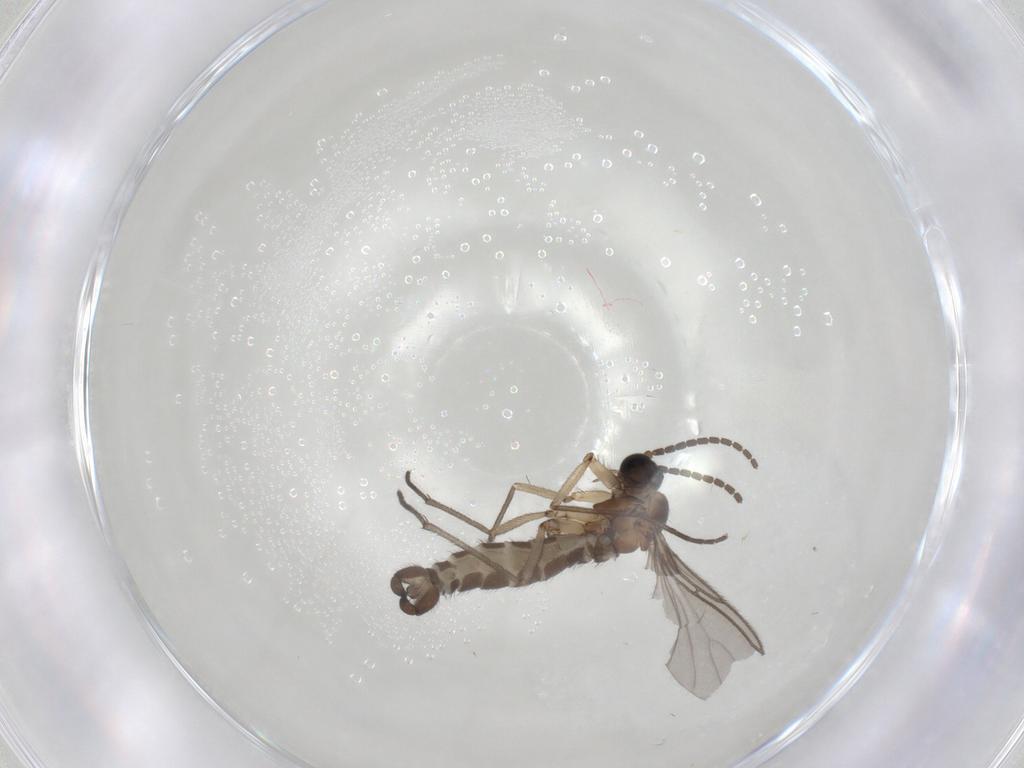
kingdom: Animalia
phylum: Arthropoda
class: Insecta
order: Diptera
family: Sciaridae
